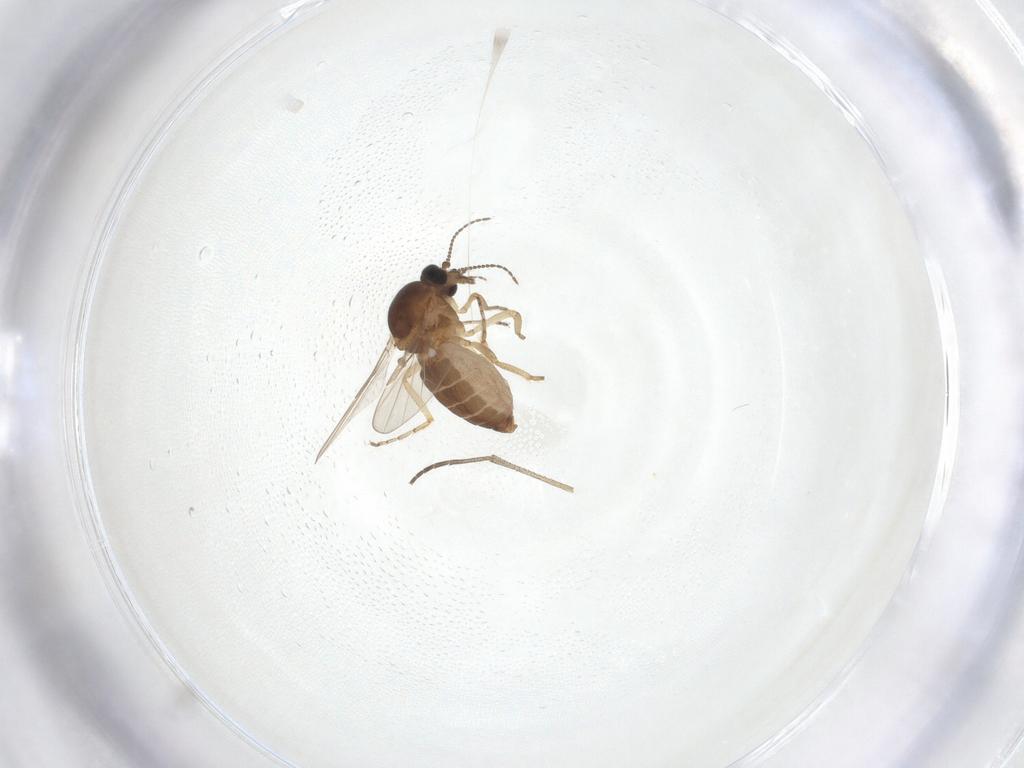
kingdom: Animalia
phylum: Arthropoda
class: Insecta
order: Diptera
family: Ceratopogonidae
